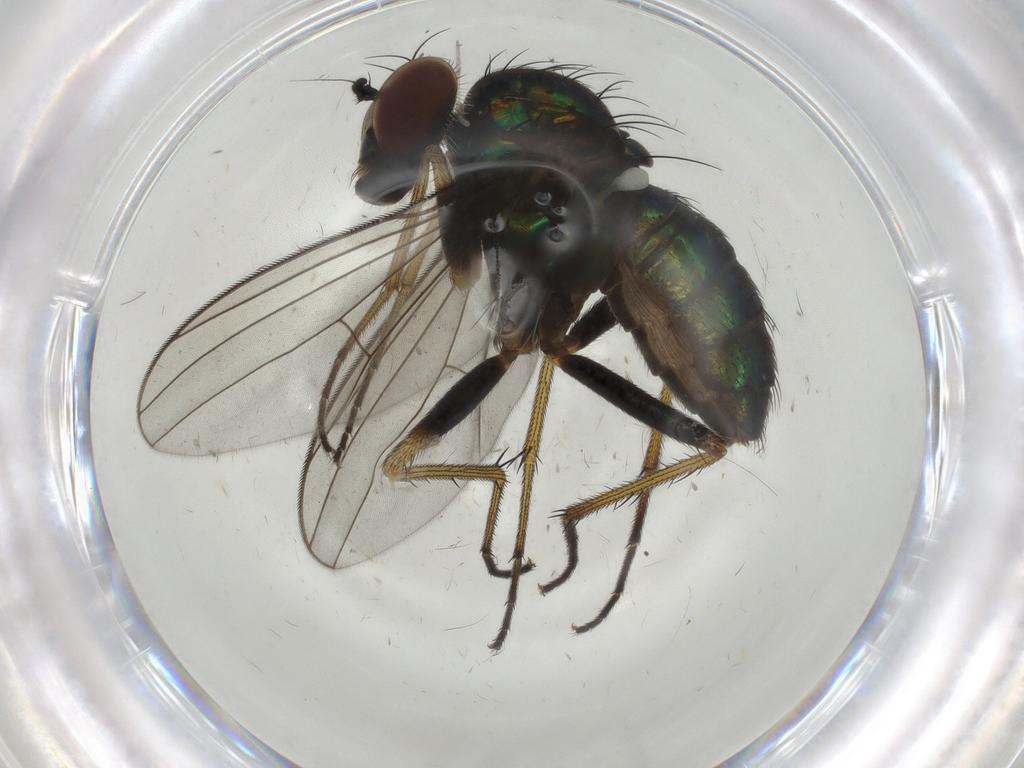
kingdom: Animalia
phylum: Arthropoda
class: Insecta
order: Diptera
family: Dolichopodidae
